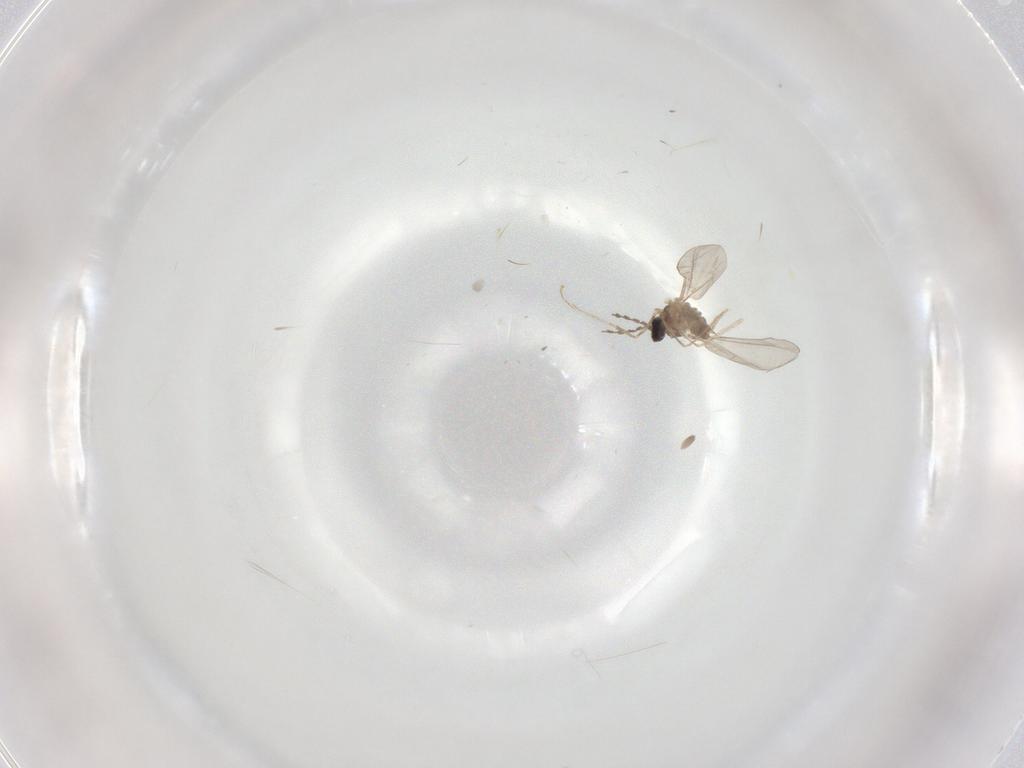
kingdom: Animalia
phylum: Arthropoda
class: Insecta
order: Diptera
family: Cecidomyiidae
